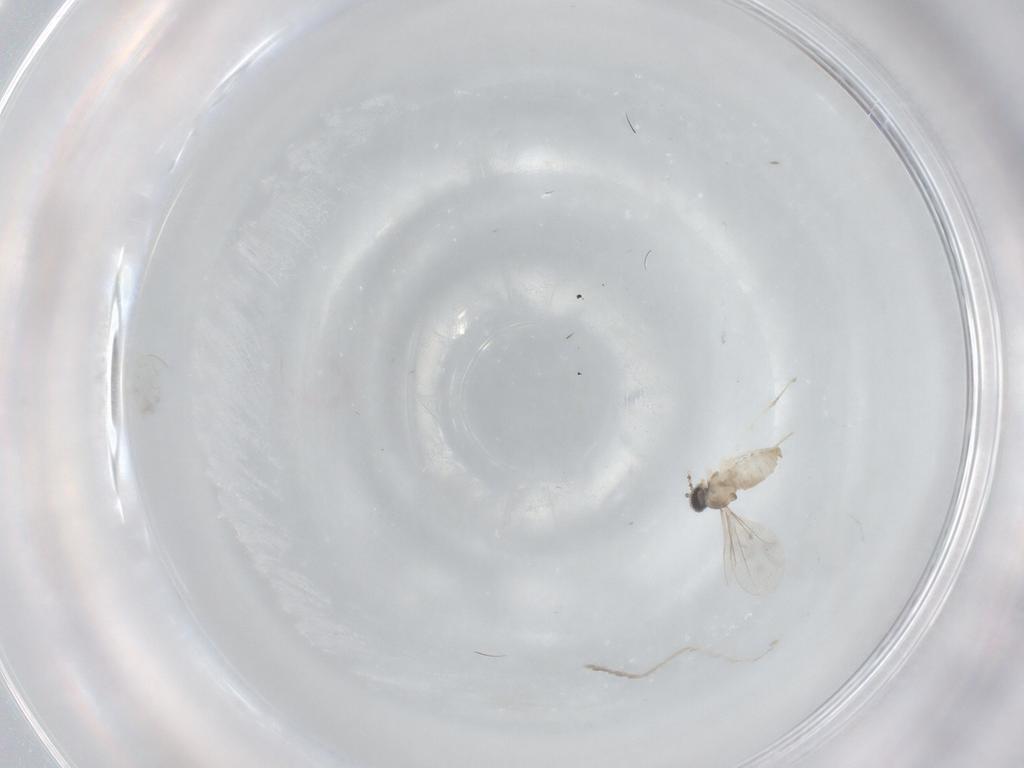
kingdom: Animalia
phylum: Arthropoda
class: Insecta
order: Diptera
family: Cecidomyiidae
